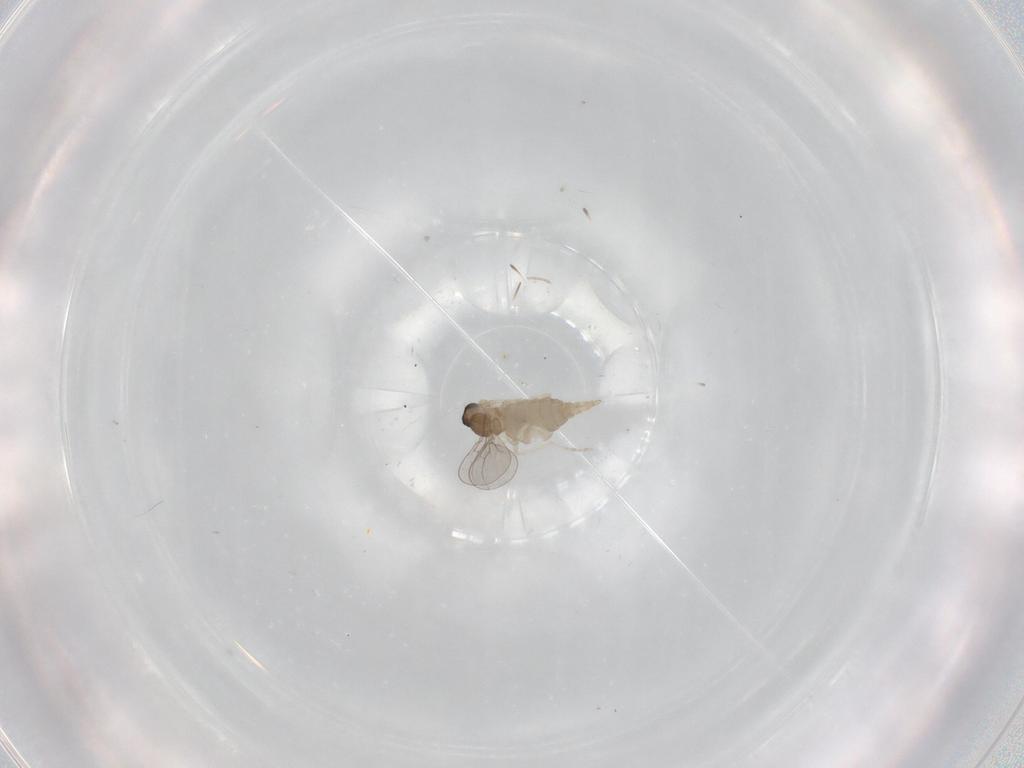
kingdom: Animalia
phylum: Arthropoda
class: Insecta
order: Diptera
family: Cecidomyiidae
